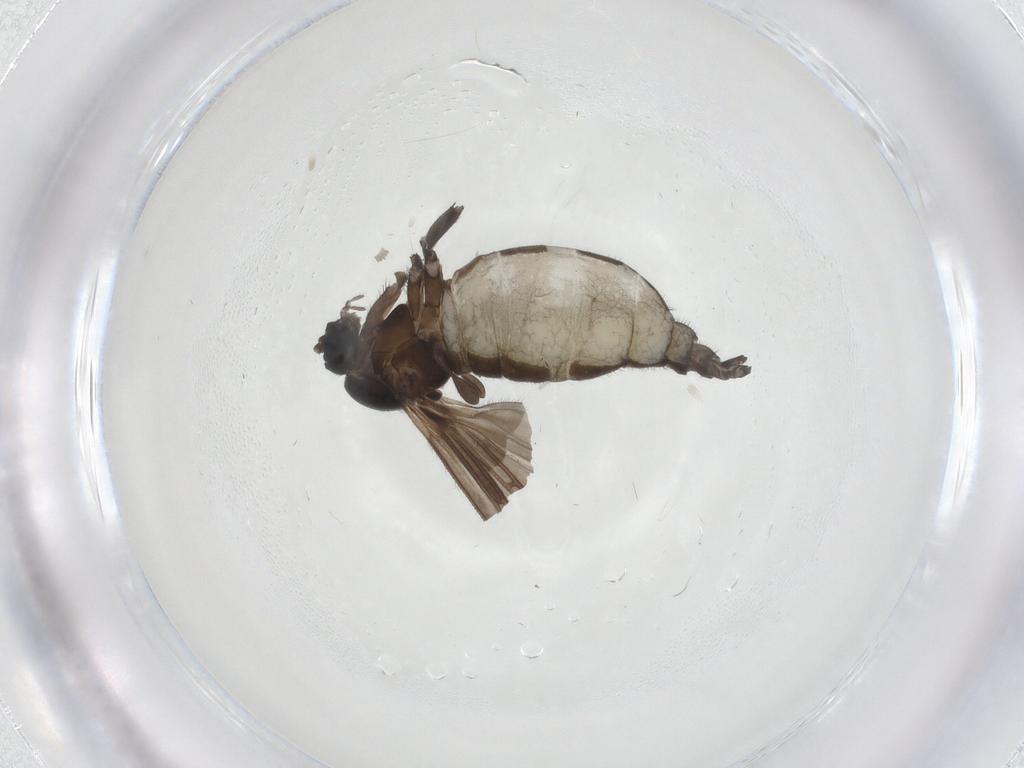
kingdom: Animalia
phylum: Arthropoda
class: Insecta
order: Diptera
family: Sciaridae
